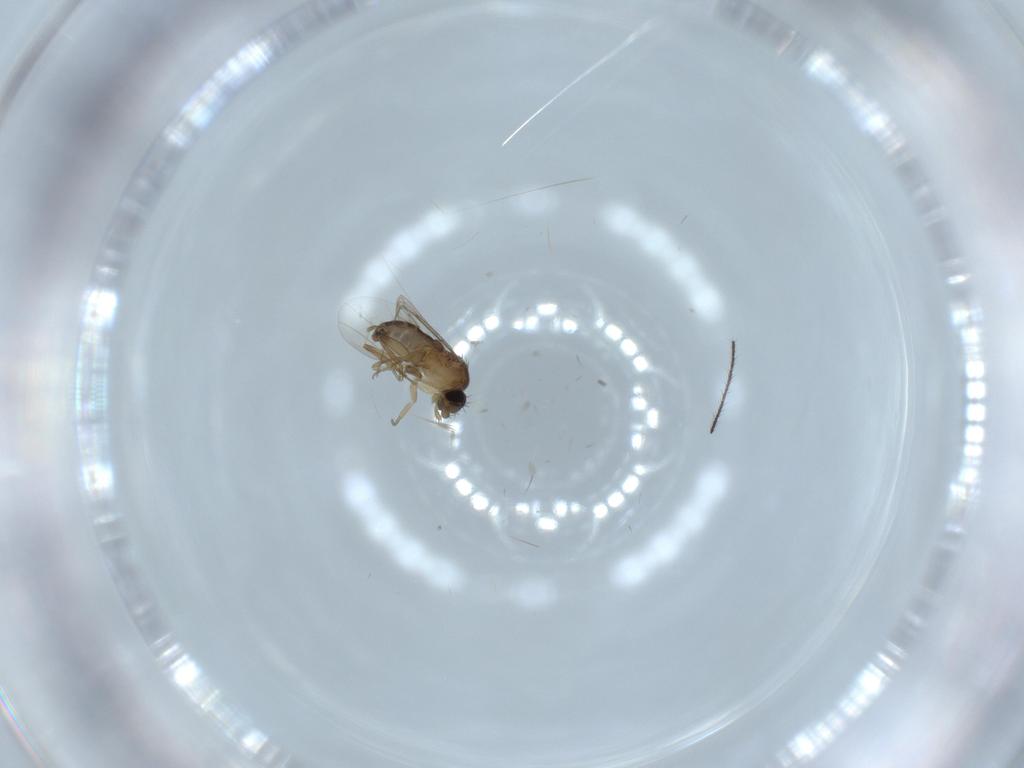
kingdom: Animalia
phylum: Arthropoda
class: Insecta
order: Diptera
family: Phoridae
